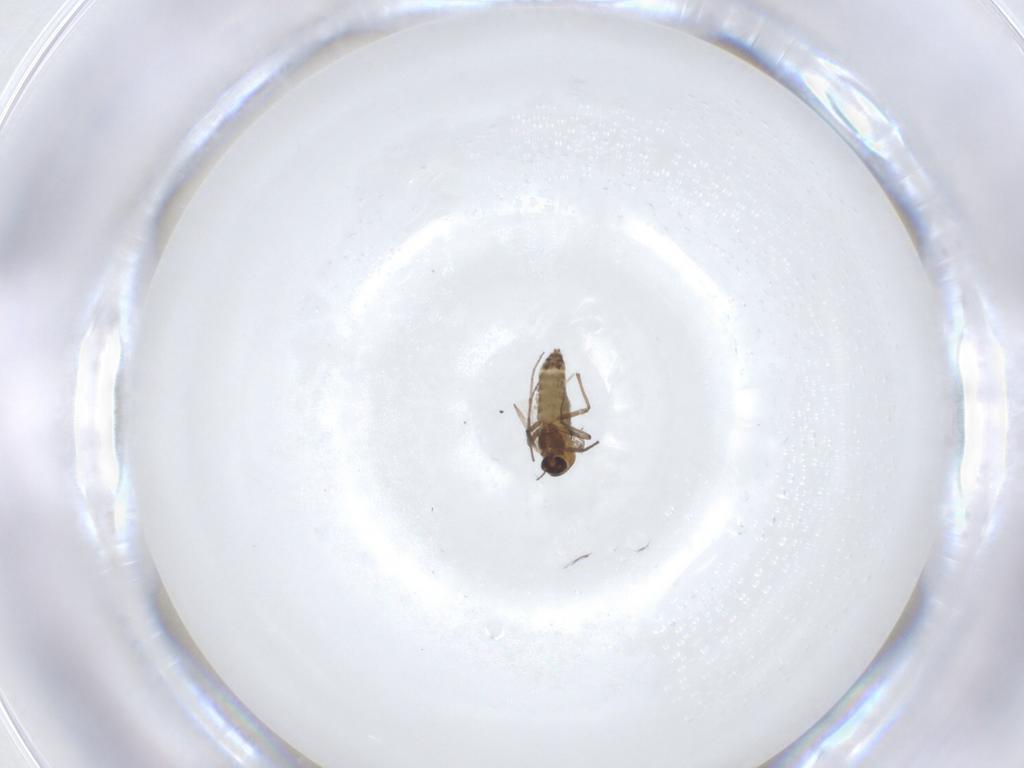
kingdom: Animalia
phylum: Arthropoda
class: Insecta
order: Diptera
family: Chironomidae
